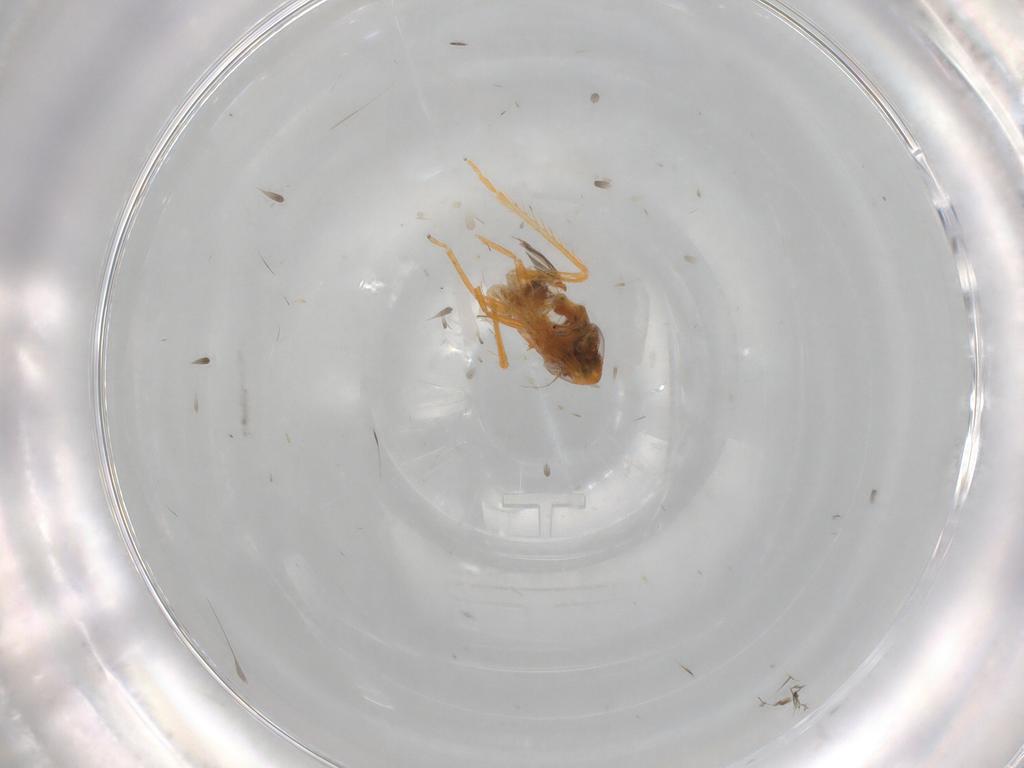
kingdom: Animalia
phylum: Arthropoda
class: Insecta
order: Hemiptera
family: Cicadellidae
